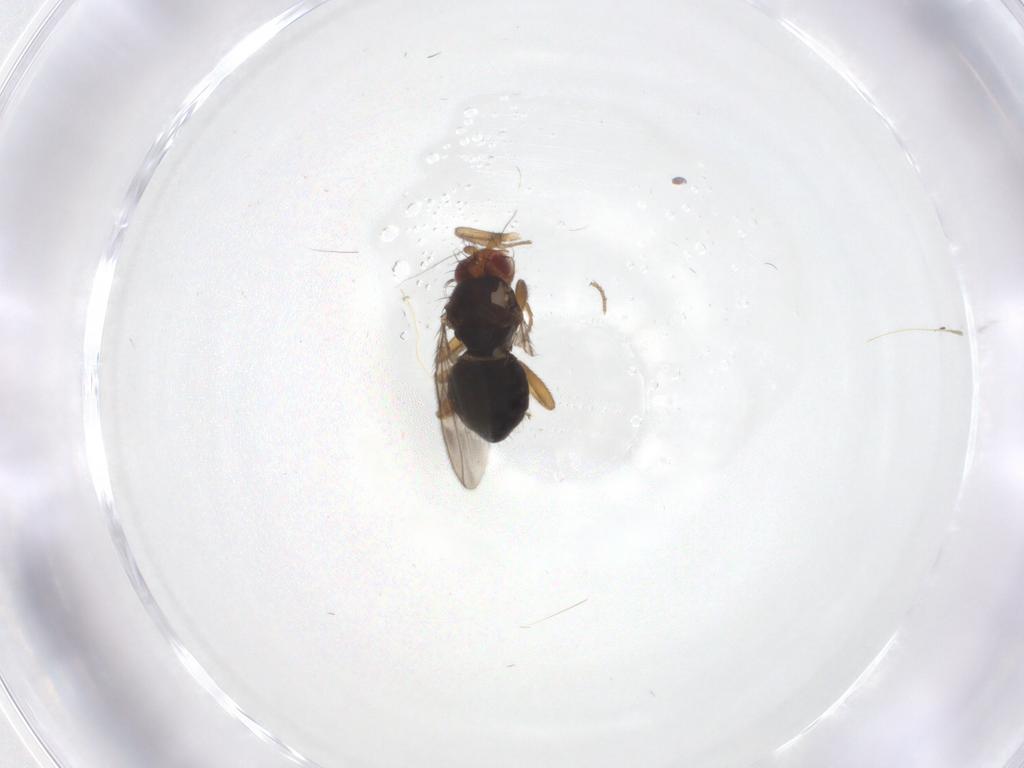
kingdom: Animalia
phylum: Arthropoda
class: Insecta
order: Diptera
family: Sphaeroceridae
